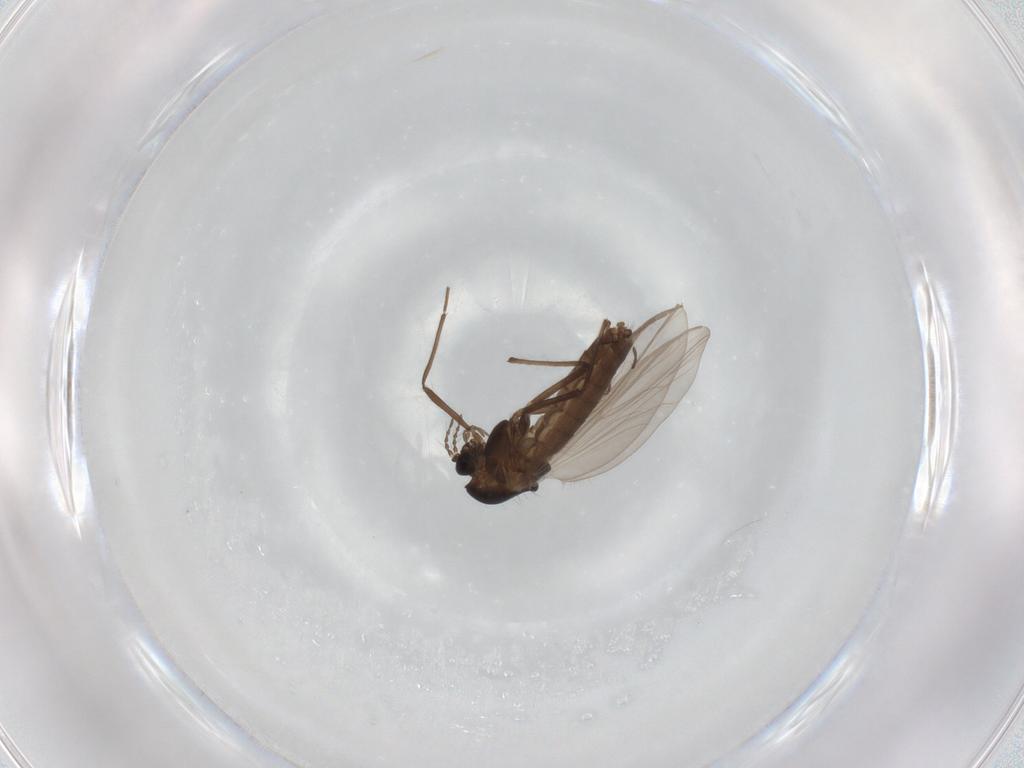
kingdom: Animalia
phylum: Arthropoda
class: Insecta
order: Diptera
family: Chironomidae
